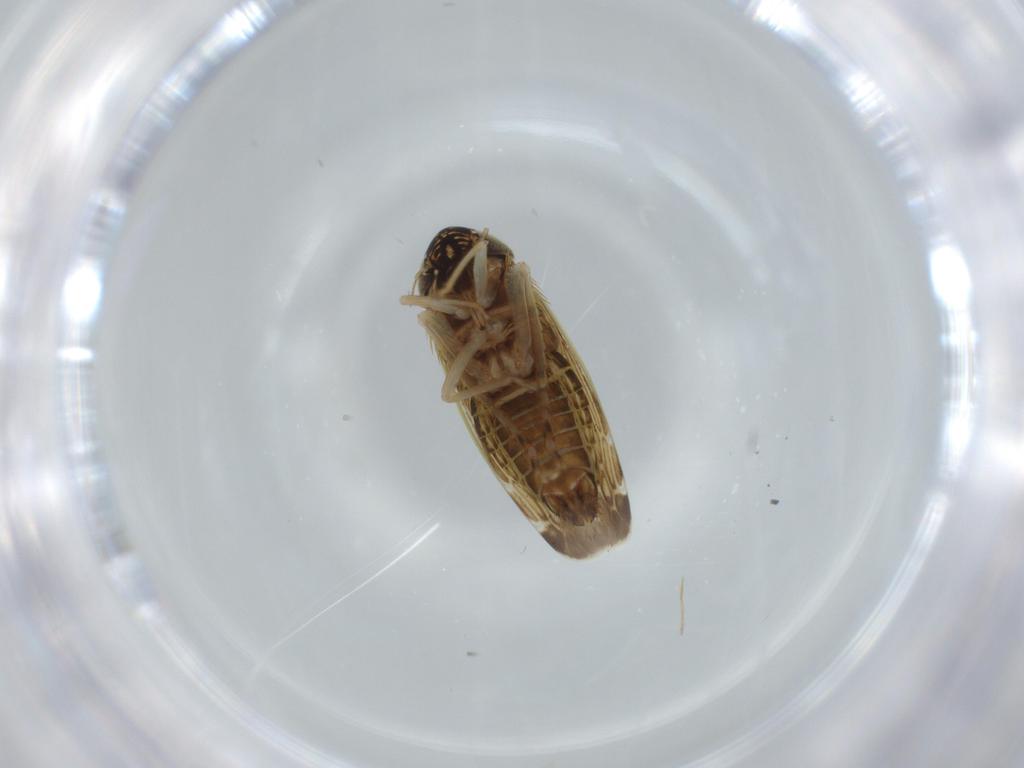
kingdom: Animalia
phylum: Arthropoda
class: Insecta
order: Hemiptera
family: Cicadellidae
